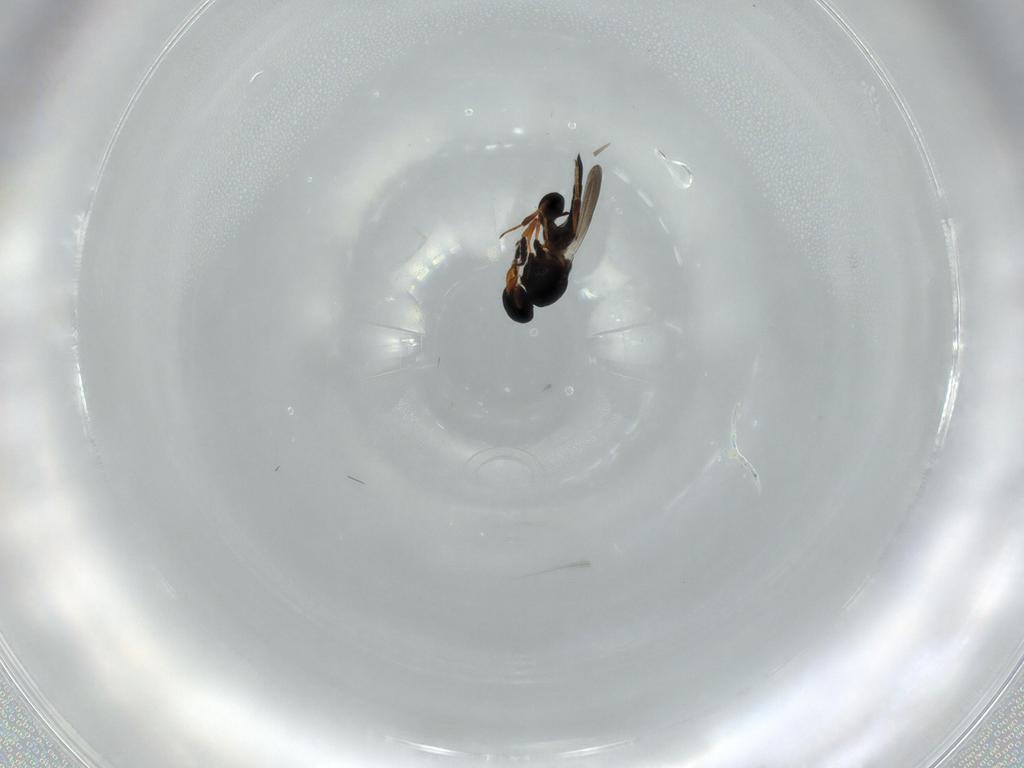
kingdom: Animalia
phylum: Arthropoda
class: Insecta
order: Hymenoptera
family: Platygastridae
